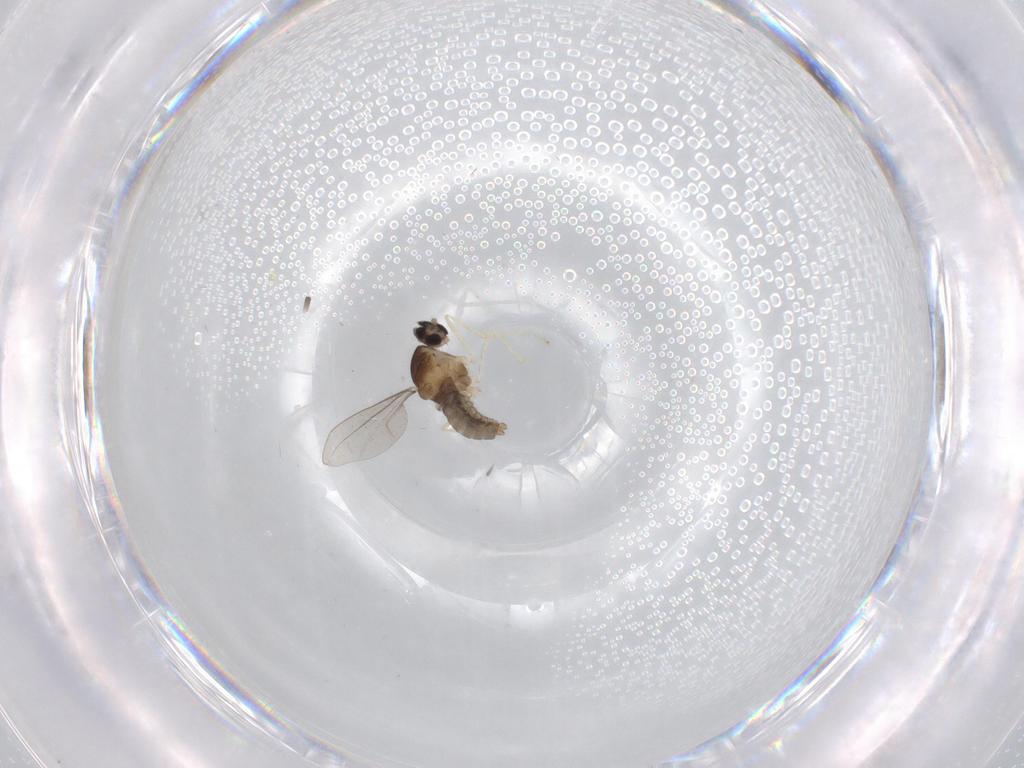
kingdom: Animalia
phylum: Arthropoda
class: Insecta
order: Diptera
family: Cecidomyiidae
